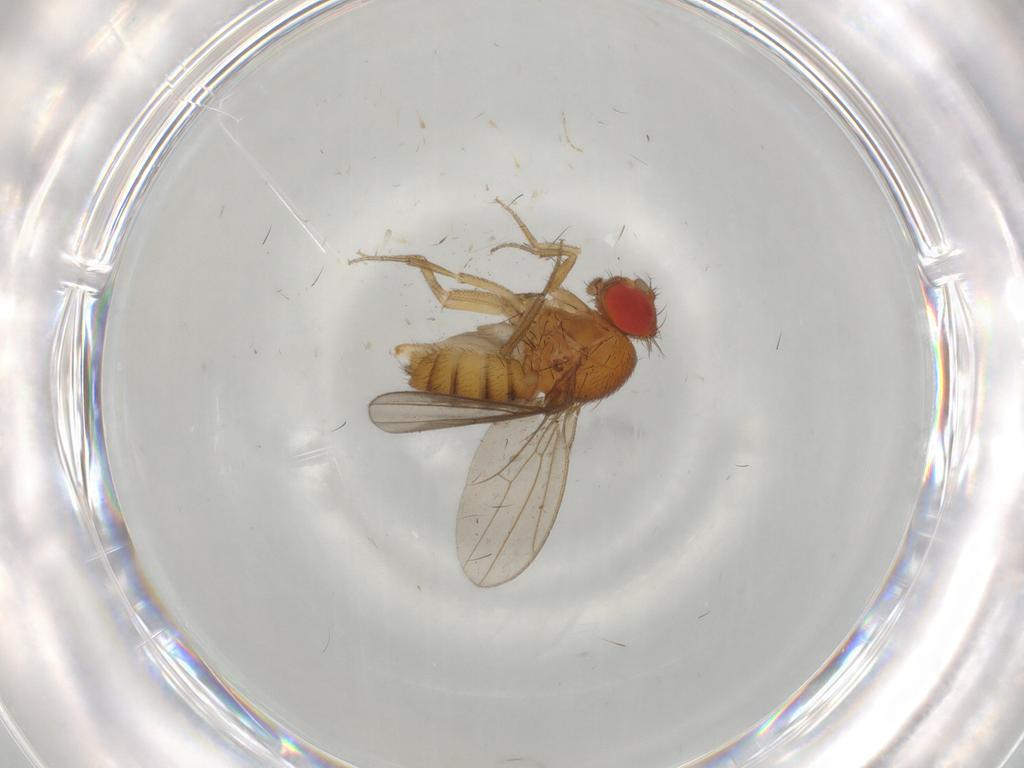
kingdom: Animalia
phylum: Arthropoda
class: Insecta
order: Diptera
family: Drosophilidae
